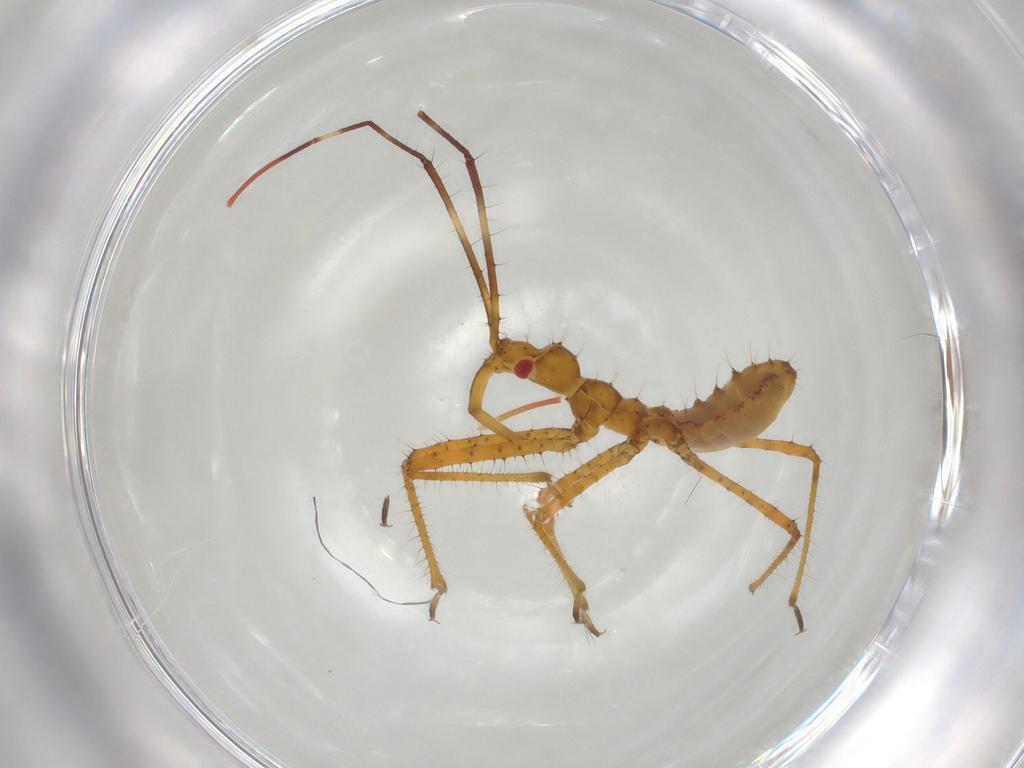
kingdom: Animalia
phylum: Arthropoda
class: Insecta
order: Hemiptera
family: Reduviidae
